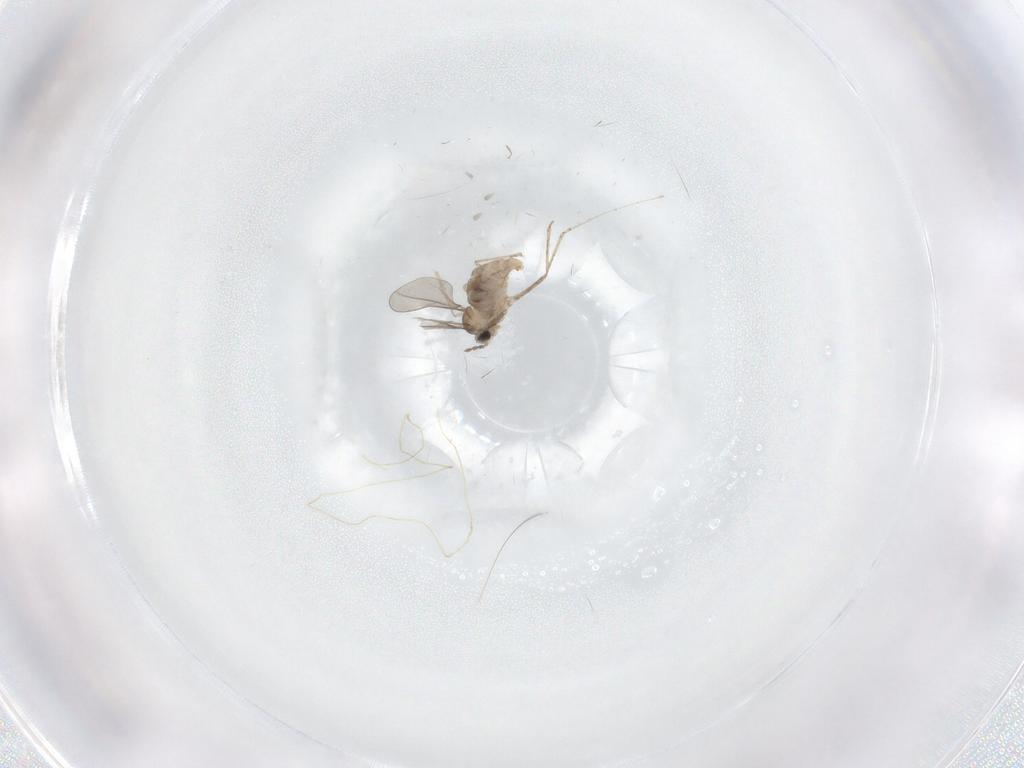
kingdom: Animalia
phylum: Arthropoda
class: Insecta
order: Diptera
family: Cecidomyiidae
